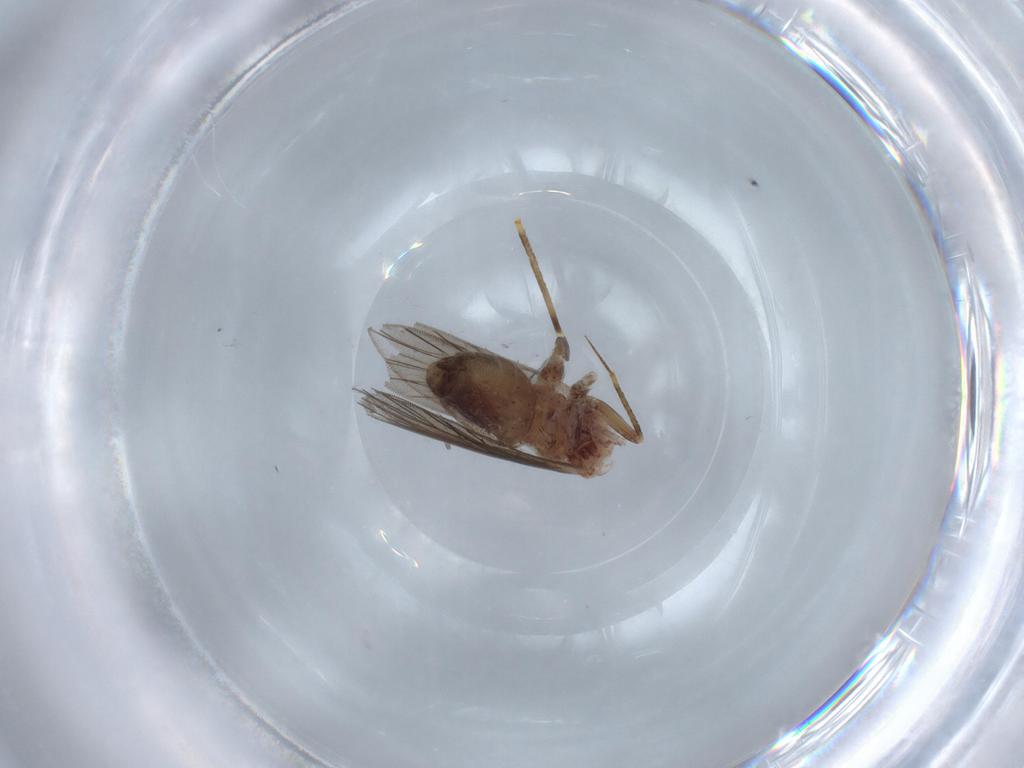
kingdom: Animalia
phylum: Arthropoda
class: Insecta
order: Psocodea
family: Lepidopsocidae
